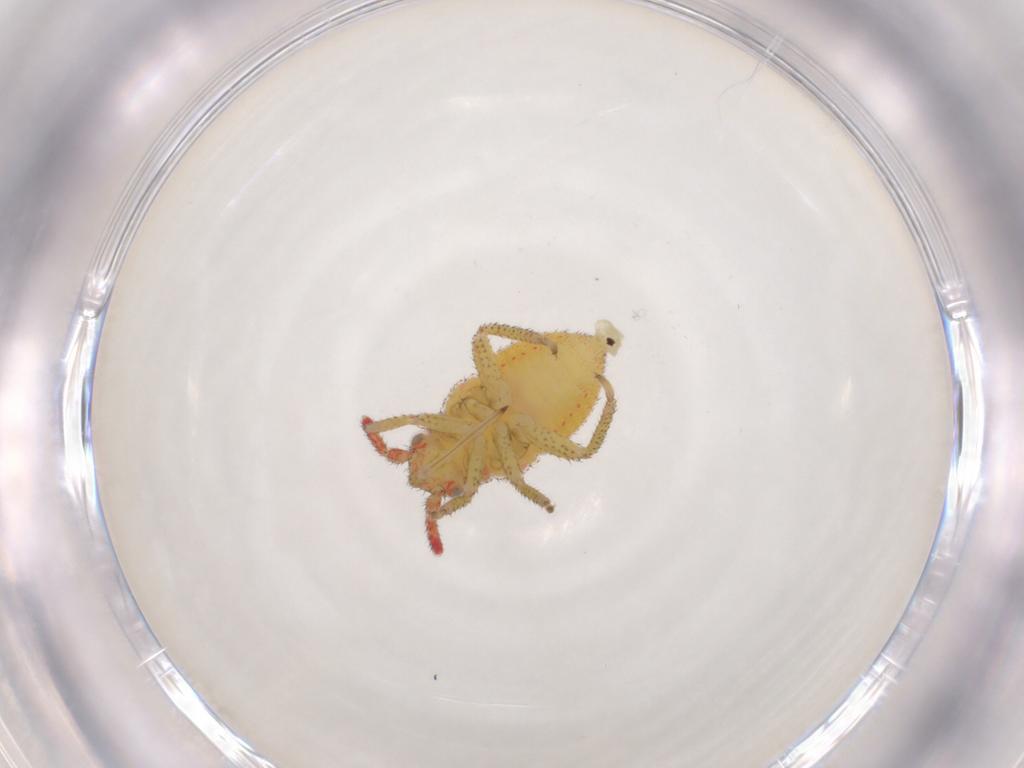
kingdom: Animalia
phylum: Arthropoda
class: Insecta
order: Hemiptera
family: Miridae
